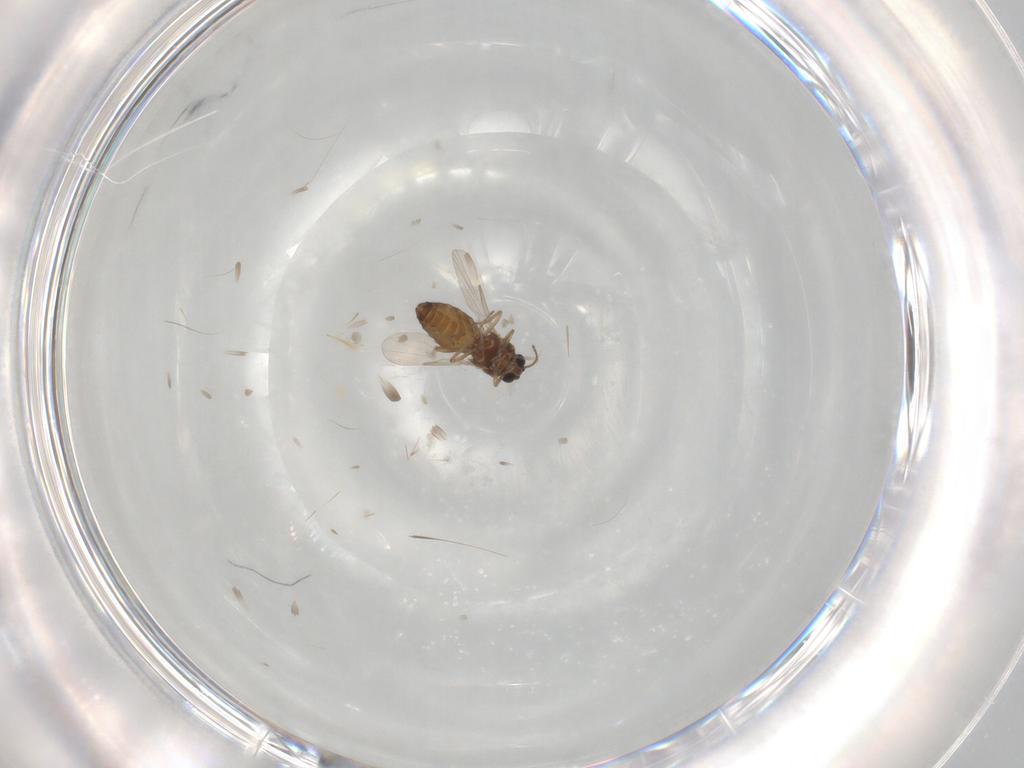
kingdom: Animalia
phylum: Arthropoda
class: Insecta
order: Diptera
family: Ceratopogonidae
